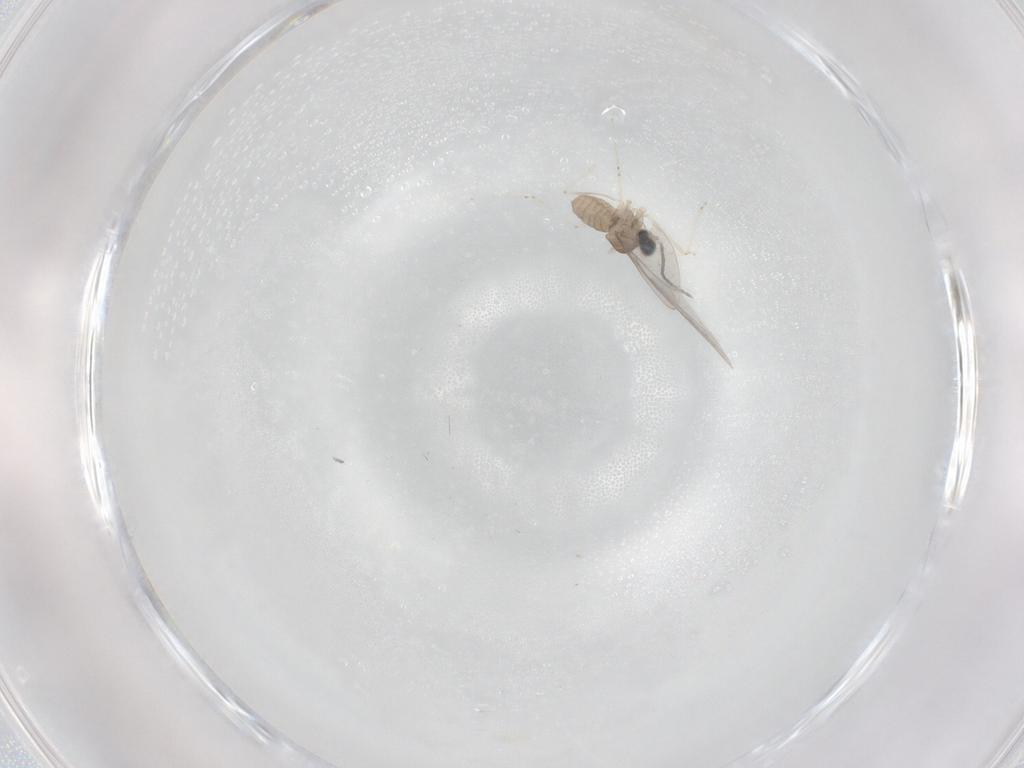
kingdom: Animalia
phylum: Arthropoda
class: Insecta
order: Diptera
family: Cecidomyiidae
